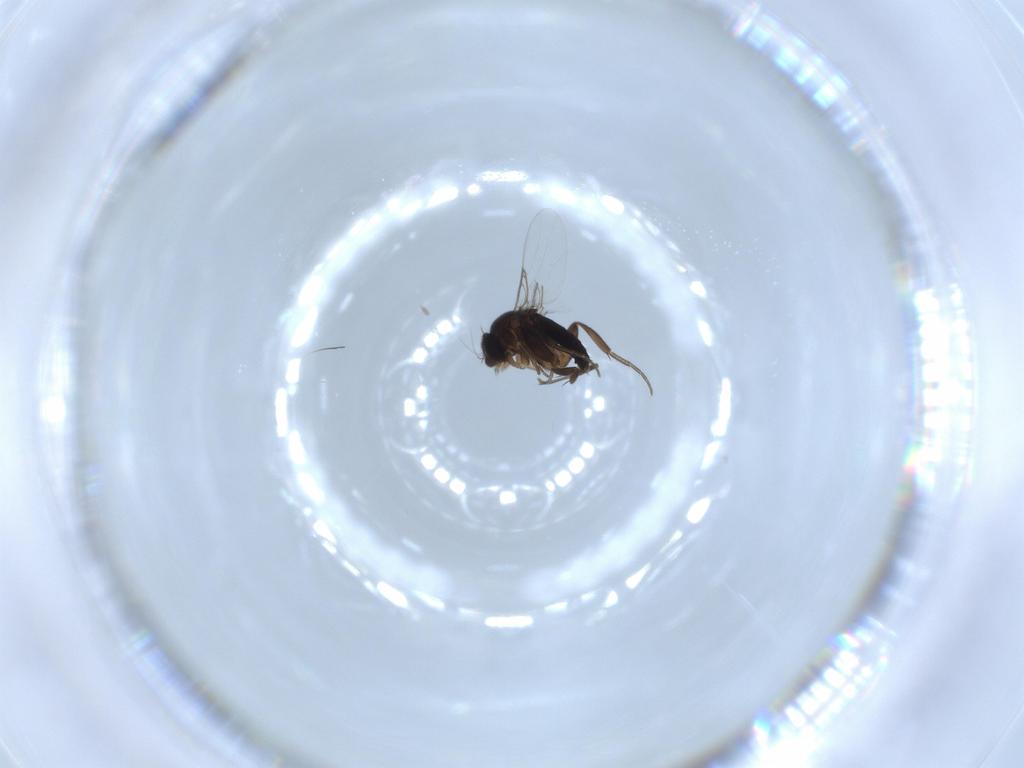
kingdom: Animalia
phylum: Arthropoda
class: Insecta
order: Diptera
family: Phoridae
